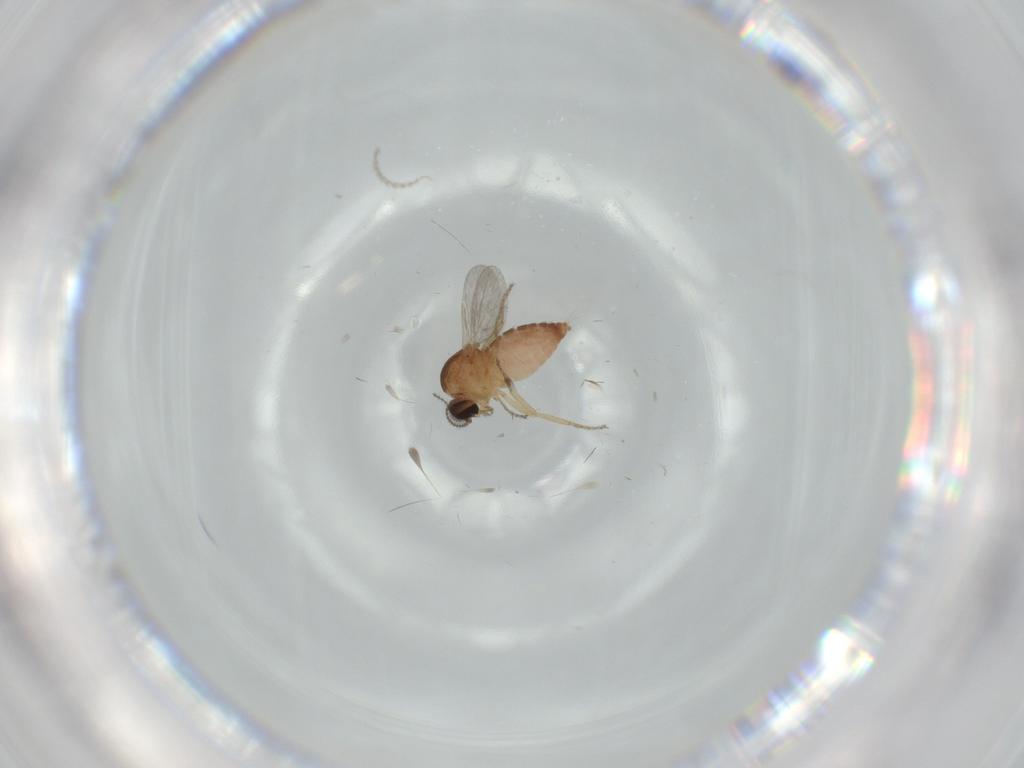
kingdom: Animalia
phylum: Arthropoda
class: Insecta
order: Diptera
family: Ceratopogonidae
